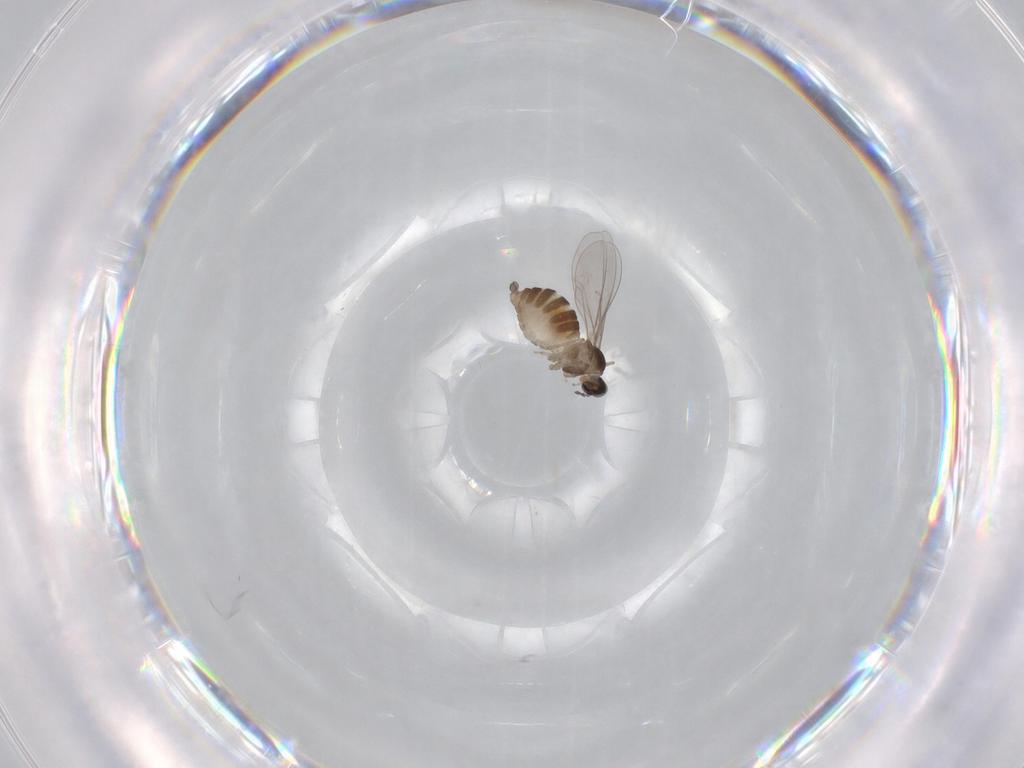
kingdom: Animalia
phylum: Arthropoda
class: Insecta
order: Diptera
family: Cecidomyiidae
